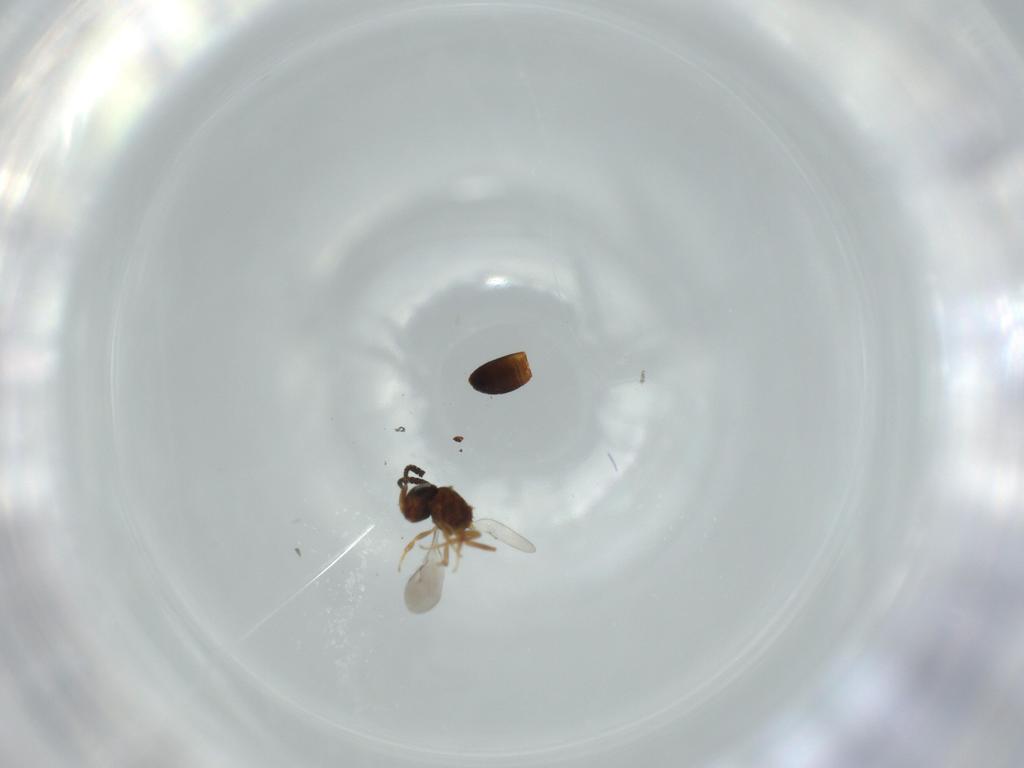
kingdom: Animalia
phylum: Arthropoda
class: Insecta
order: Hymenoptera
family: Scelionidae
